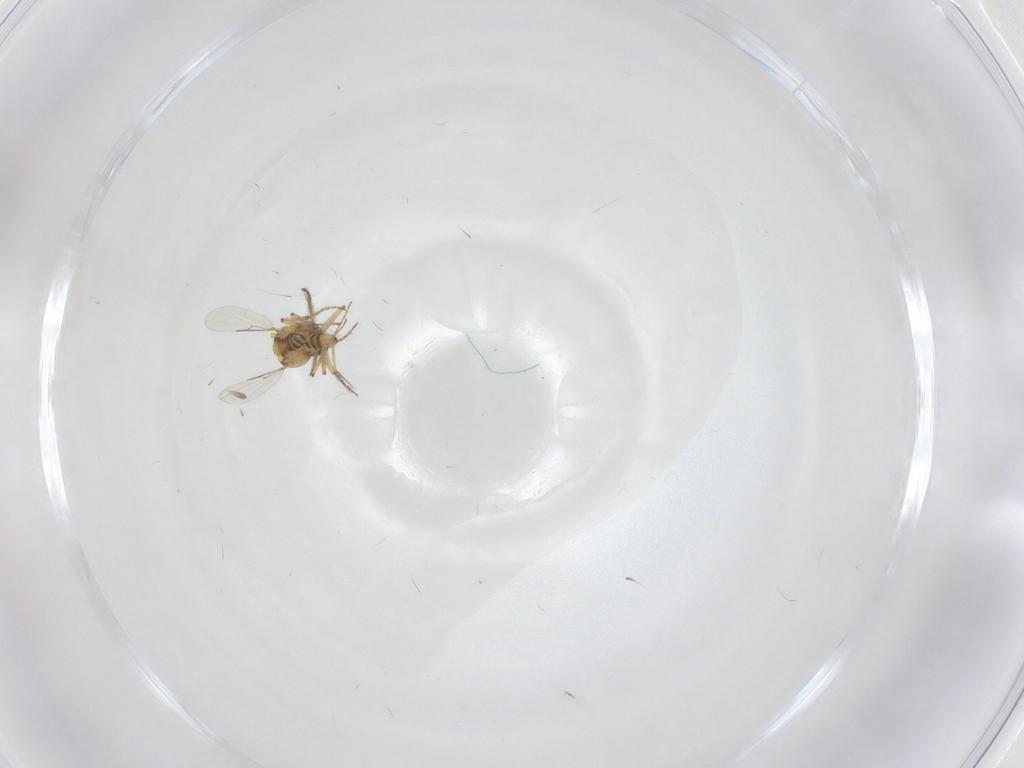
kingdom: Animalia
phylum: Arthropoda
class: Insecta
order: Diptera
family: Ceratopogonidae
